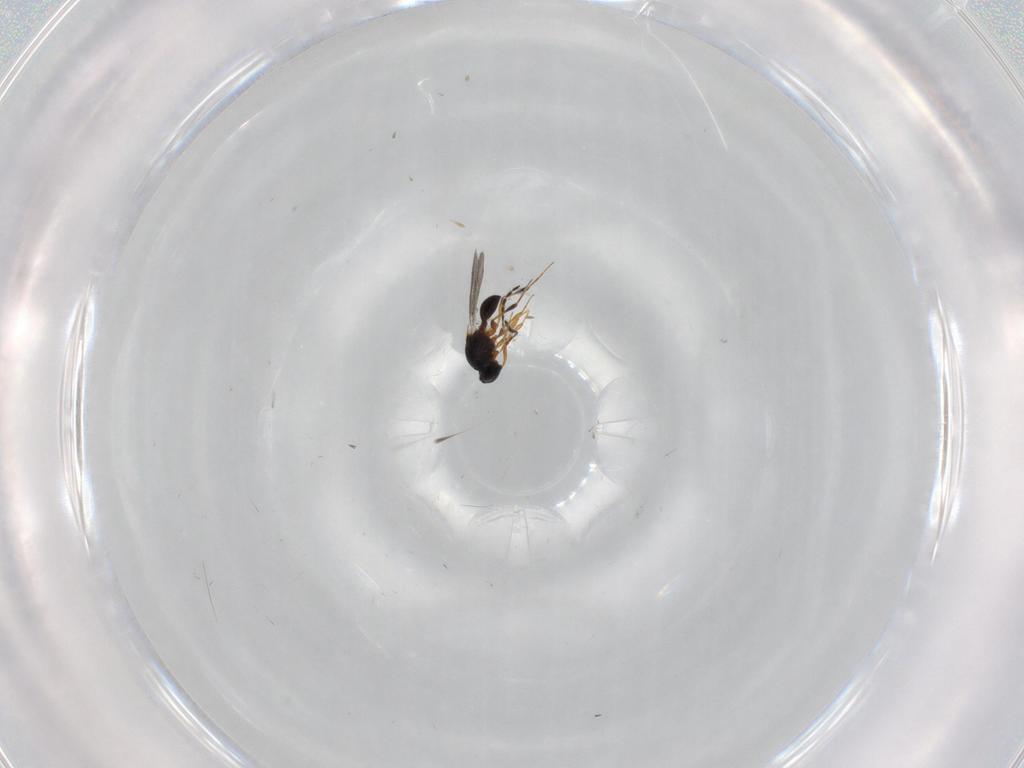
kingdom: Animalia
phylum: Arthropoda
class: Insecta
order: Hymenoptera
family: Platygastridae
